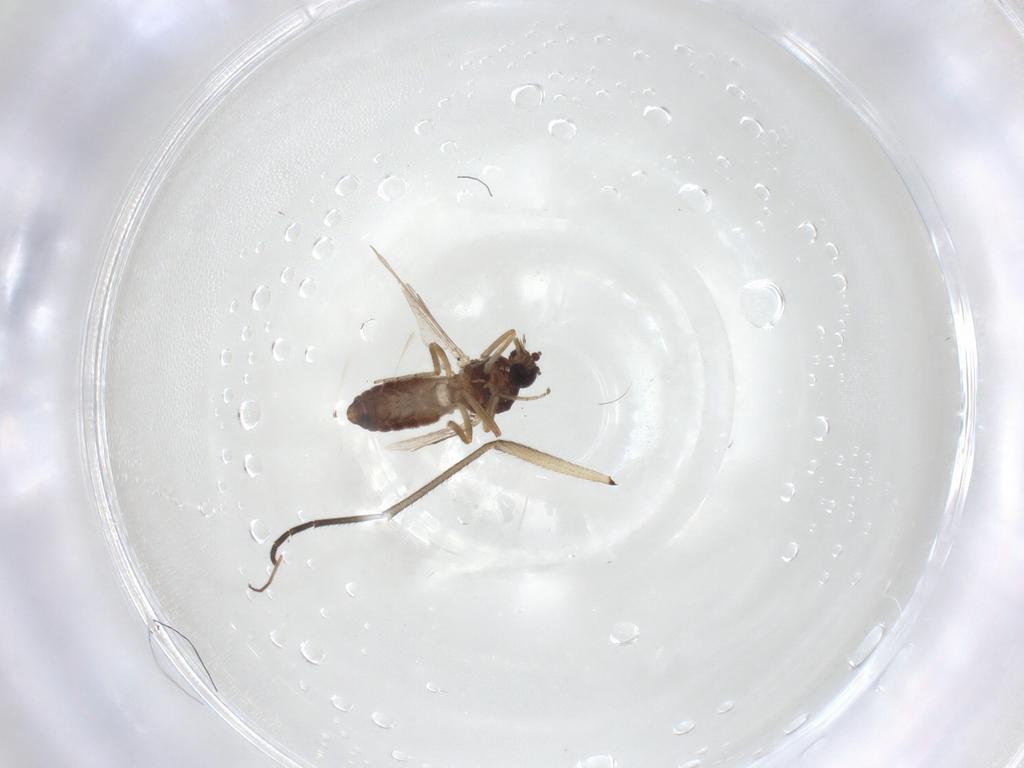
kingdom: Animalia
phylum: Arthropoda
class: Insecta
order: Diptera
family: Ceratopogonidae
